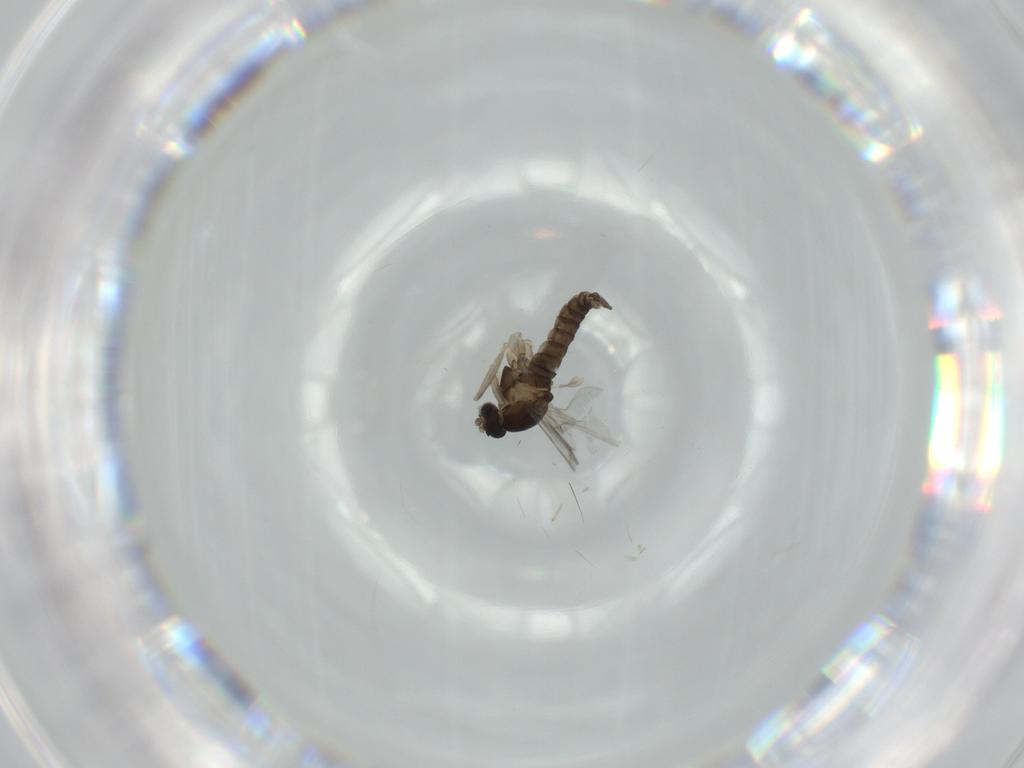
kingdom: Animalia
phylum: Arthropoda
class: Insecta
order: Diptera
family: Cecidomyiidae
